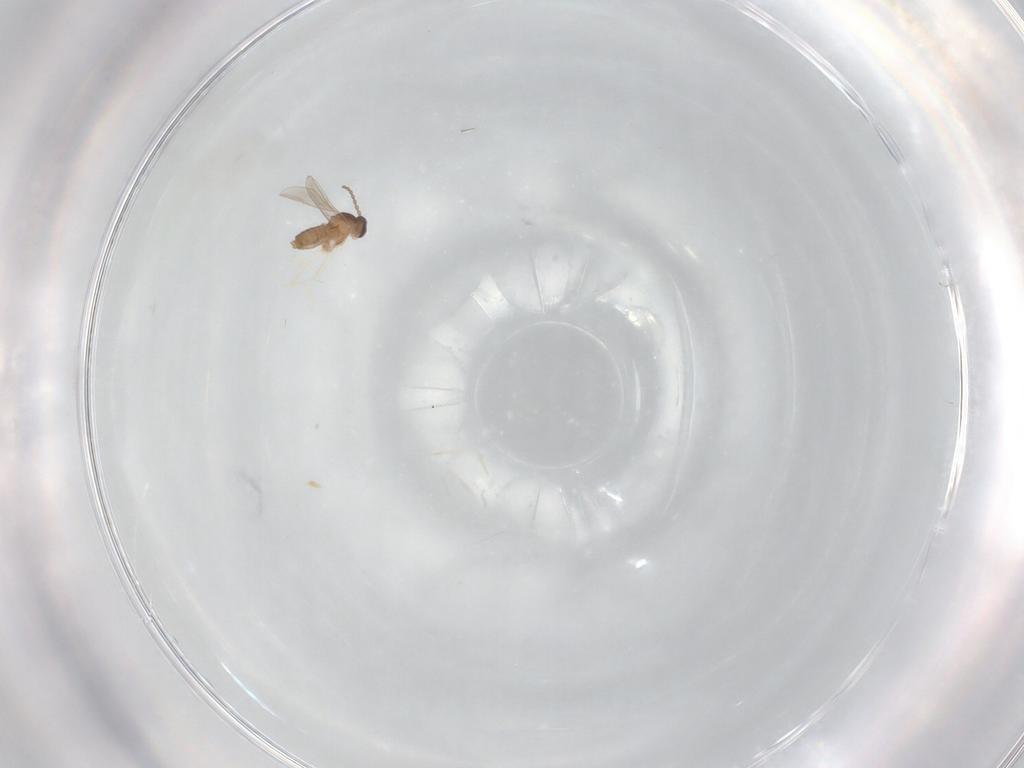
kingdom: Animalia
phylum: Arthropoda
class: Insecta
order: Diptera
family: Cecidomyiidae
